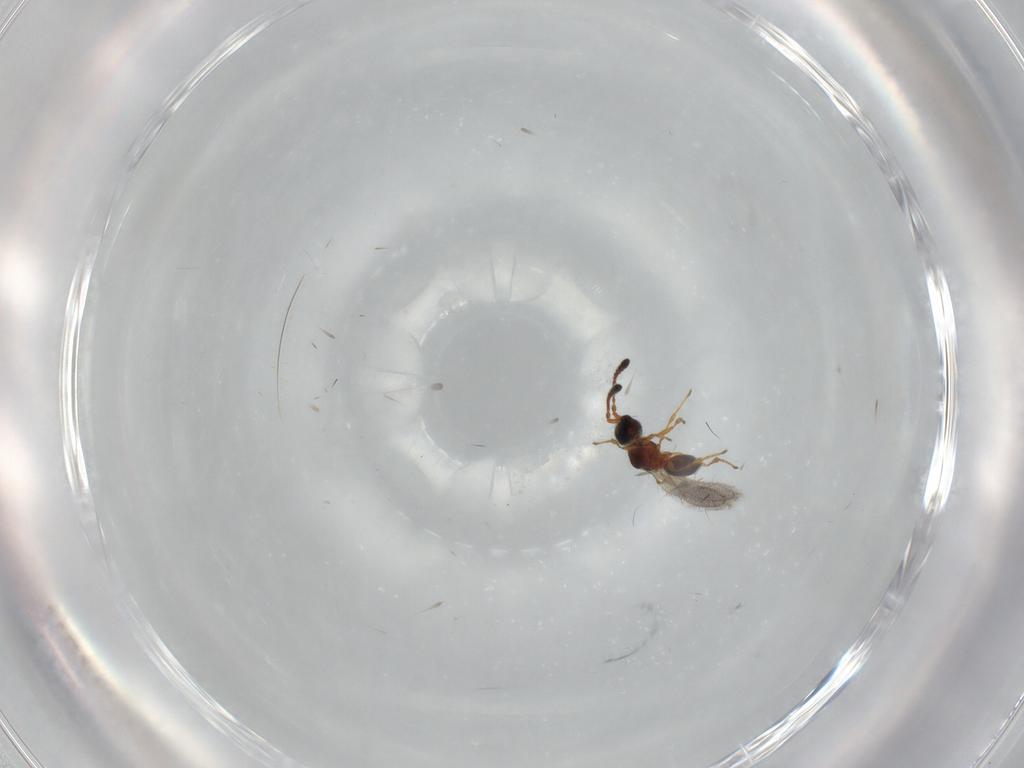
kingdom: Animalia
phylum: Arthropoda
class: Insecta
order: Hymenoptera
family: Diapriidae
